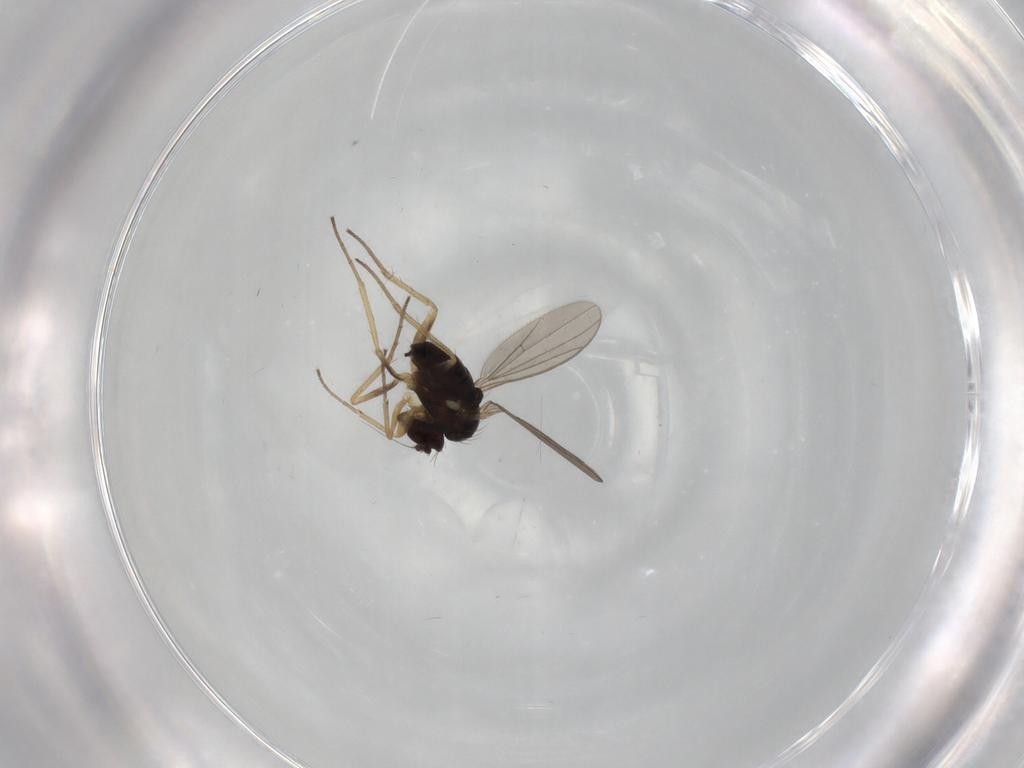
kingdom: Animalia
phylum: Arthropoda
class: Insecta
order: Diptera
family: Dolichopodidae
